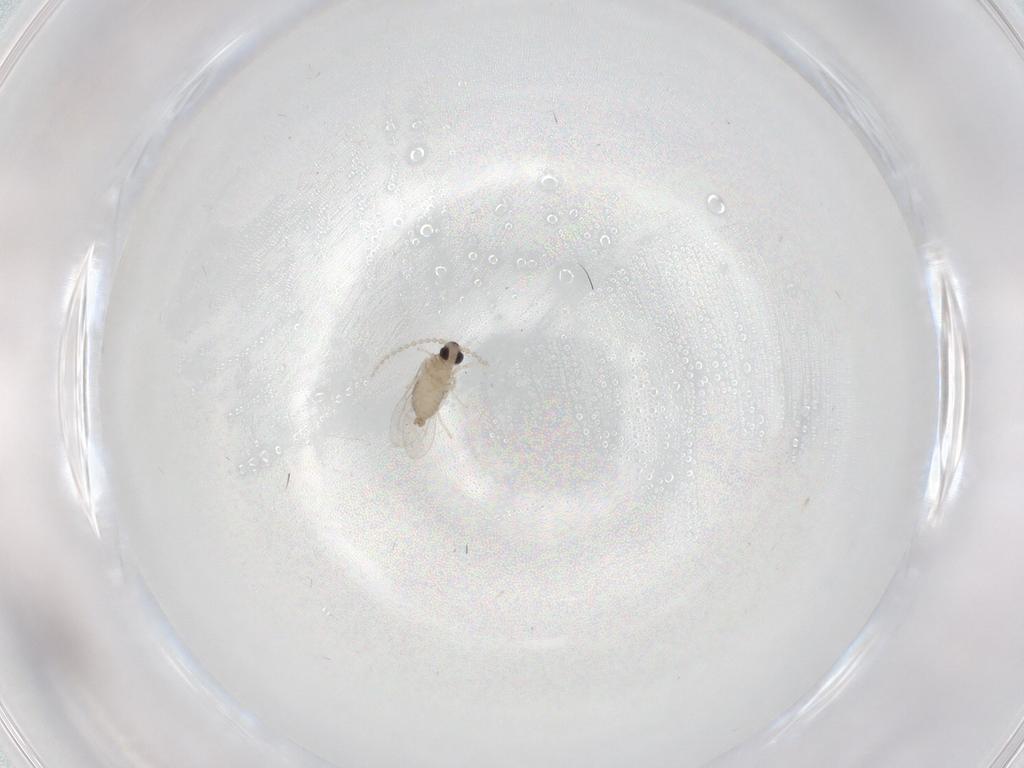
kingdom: Animalia
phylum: Arthropoda
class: Insecta
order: Diptera
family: Cecidomyiidae
